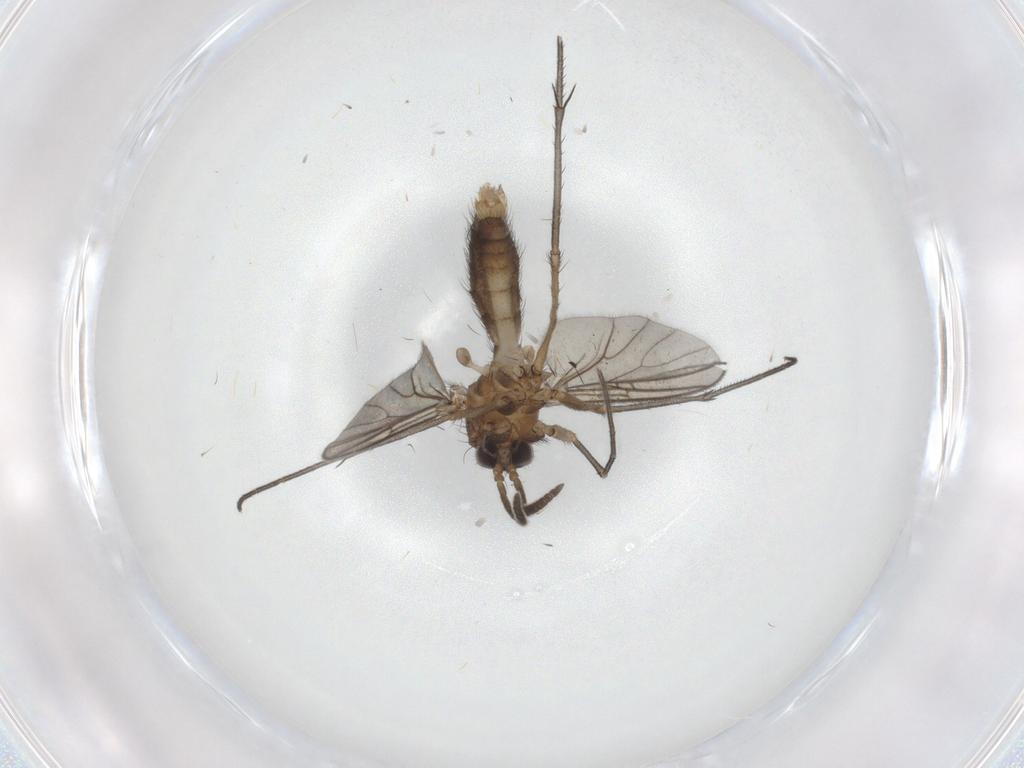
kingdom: Animalia
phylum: Arthropoda
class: Insecta
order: Diptera
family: Mycetophilidae
